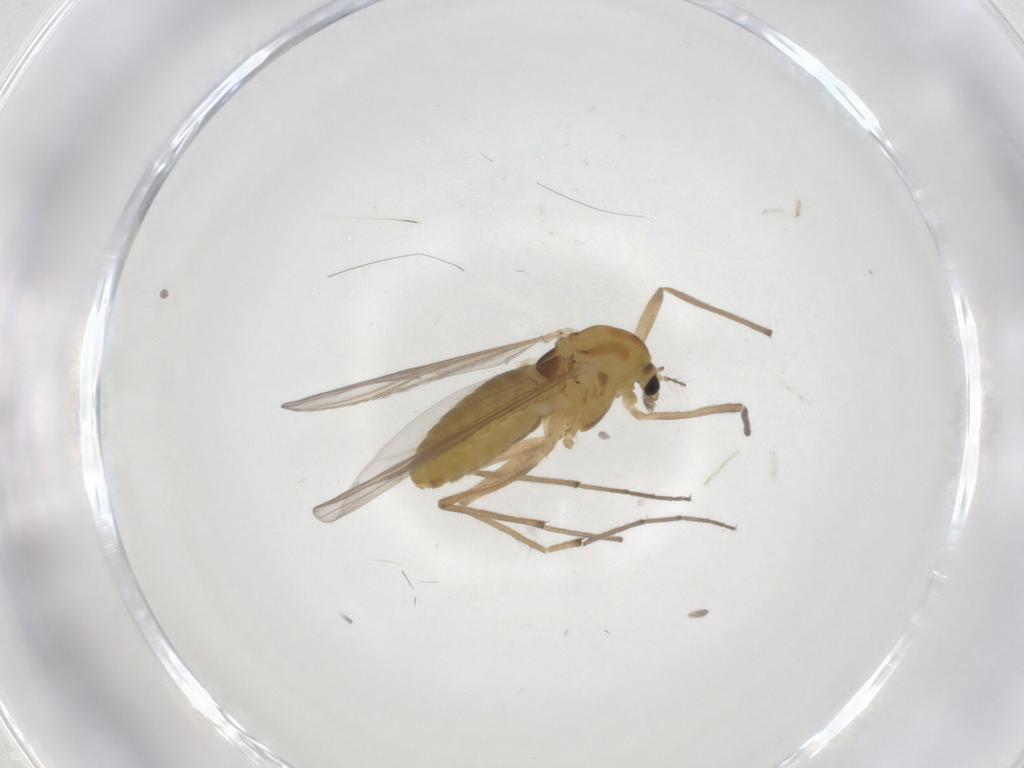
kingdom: Animalia
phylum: Arthropoda
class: Insecta
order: Diptera
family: Chironomidae
